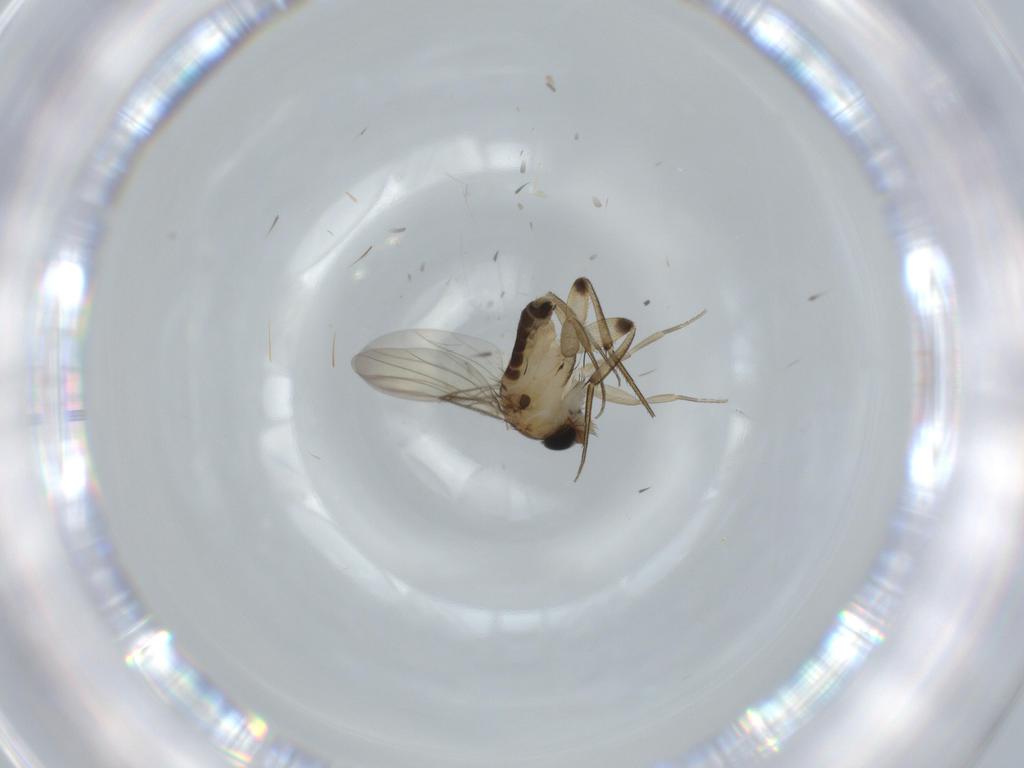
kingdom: Animalia
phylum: Arthropoda
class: Insecta
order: Diptera
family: Phoridae
